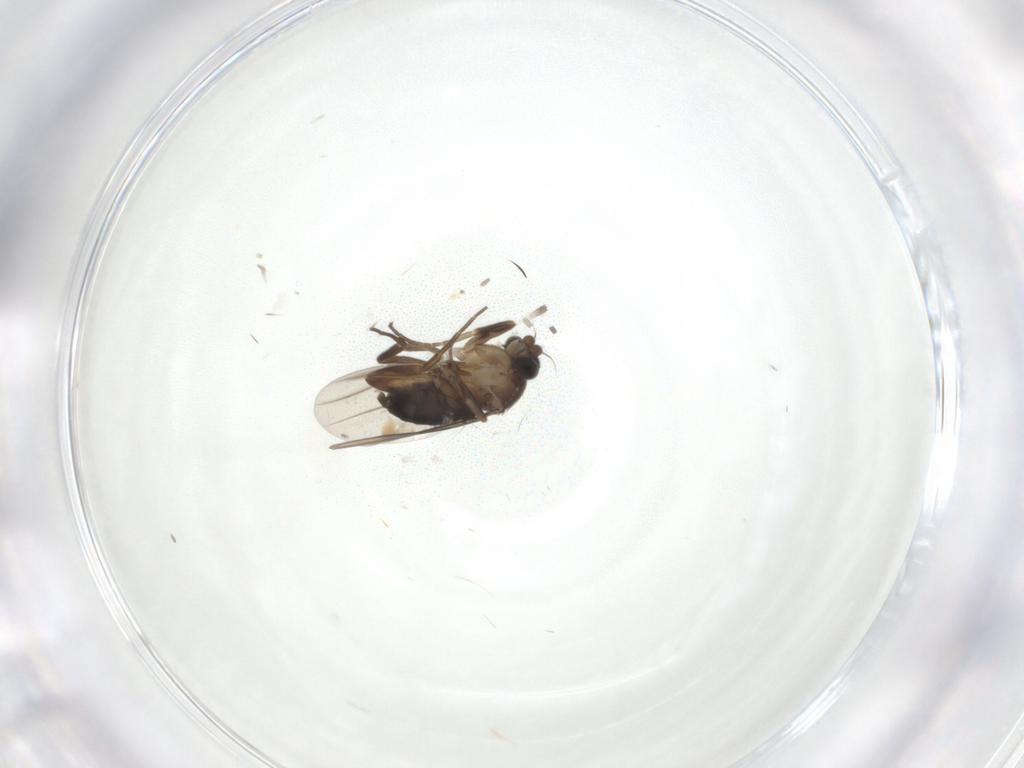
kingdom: Animalia
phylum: Arthropoda
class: Insecta
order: Diptera
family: Phoridae
